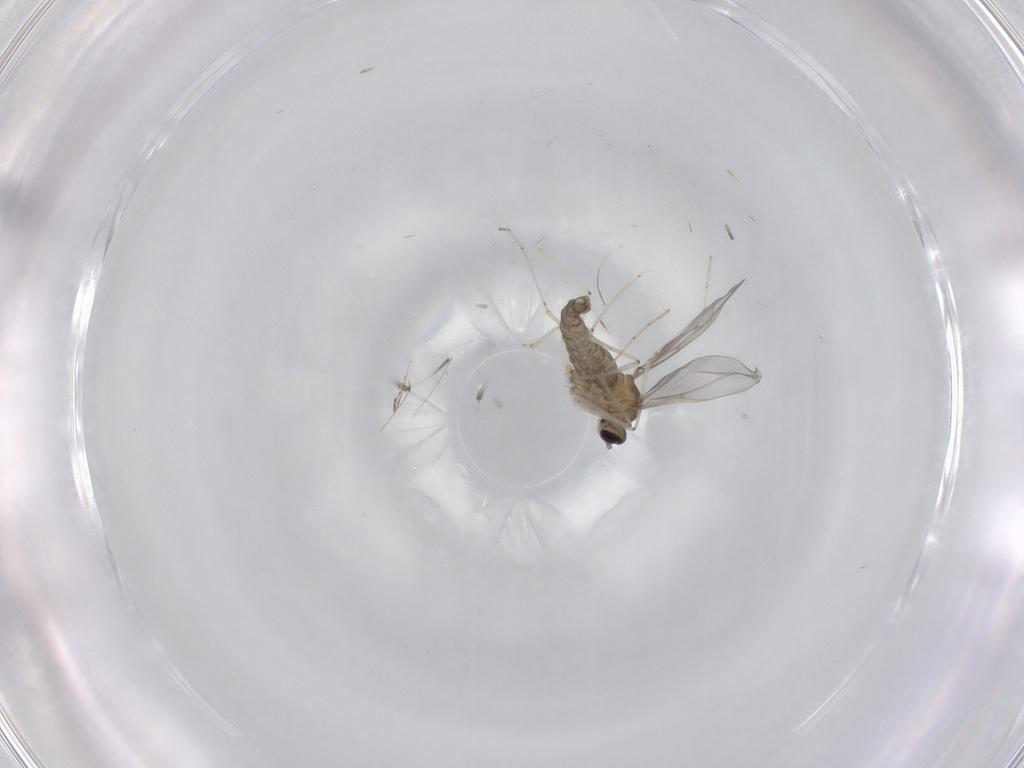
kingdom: Animalia
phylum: Arthropoda
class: Insecta
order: Diptera
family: Cecidomyiidae
